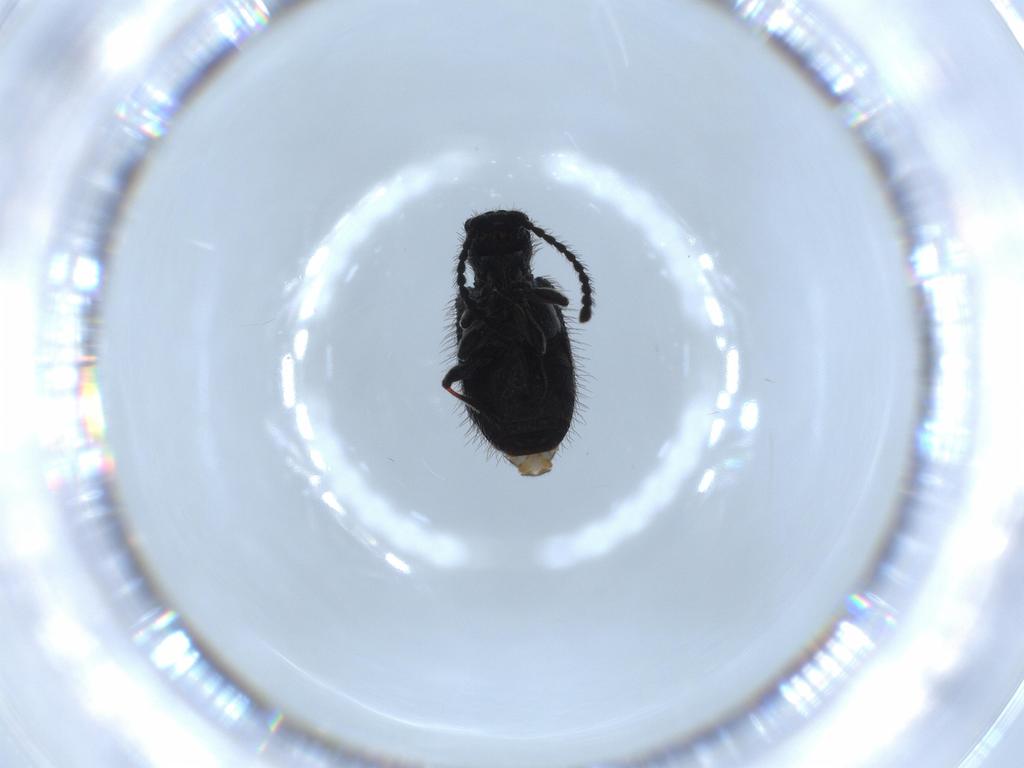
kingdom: Animalia
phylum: Arthropoda
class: Insecta
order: Coleoptera
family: Ptinidae
